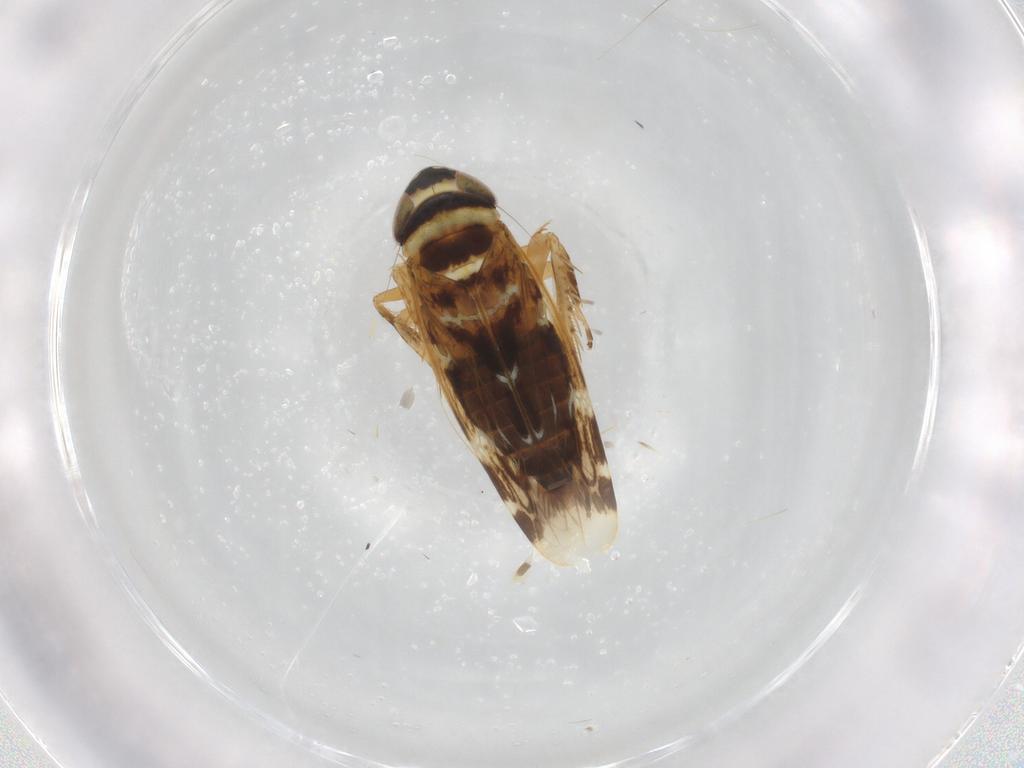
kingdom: Animalia
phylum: Arthropoda
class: Insecta
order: Hemiptera
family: Cicadellidae
